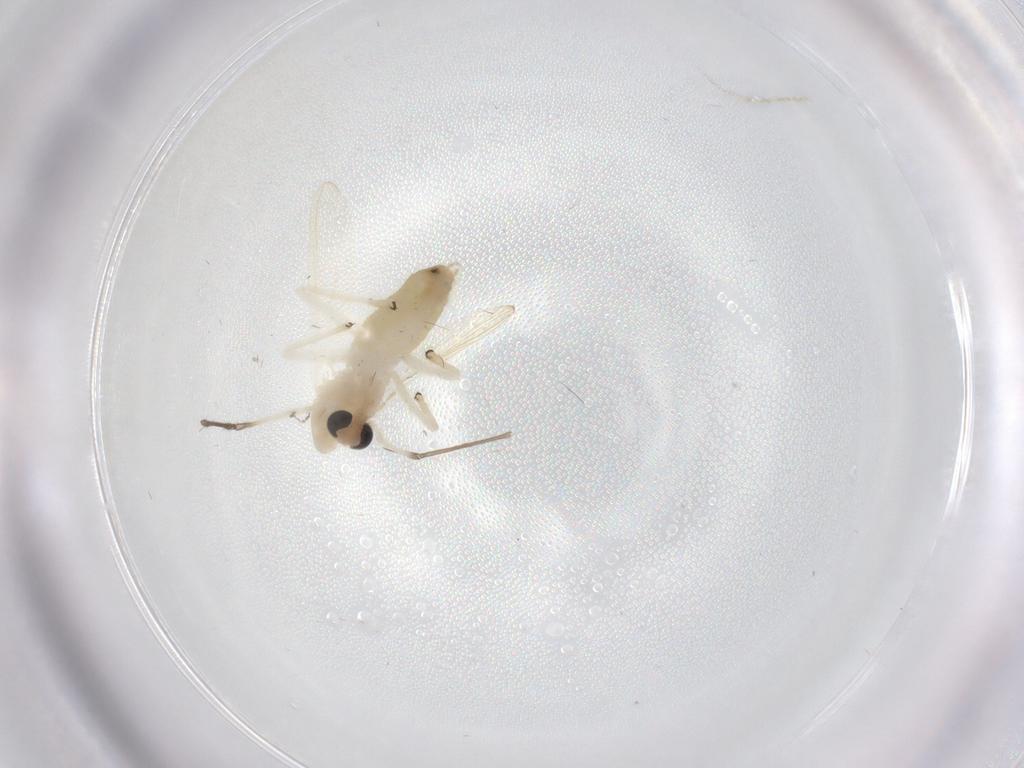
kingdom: Animalia
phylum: Arthropoda
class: Insecta
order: Diptera
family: Chironomidae
